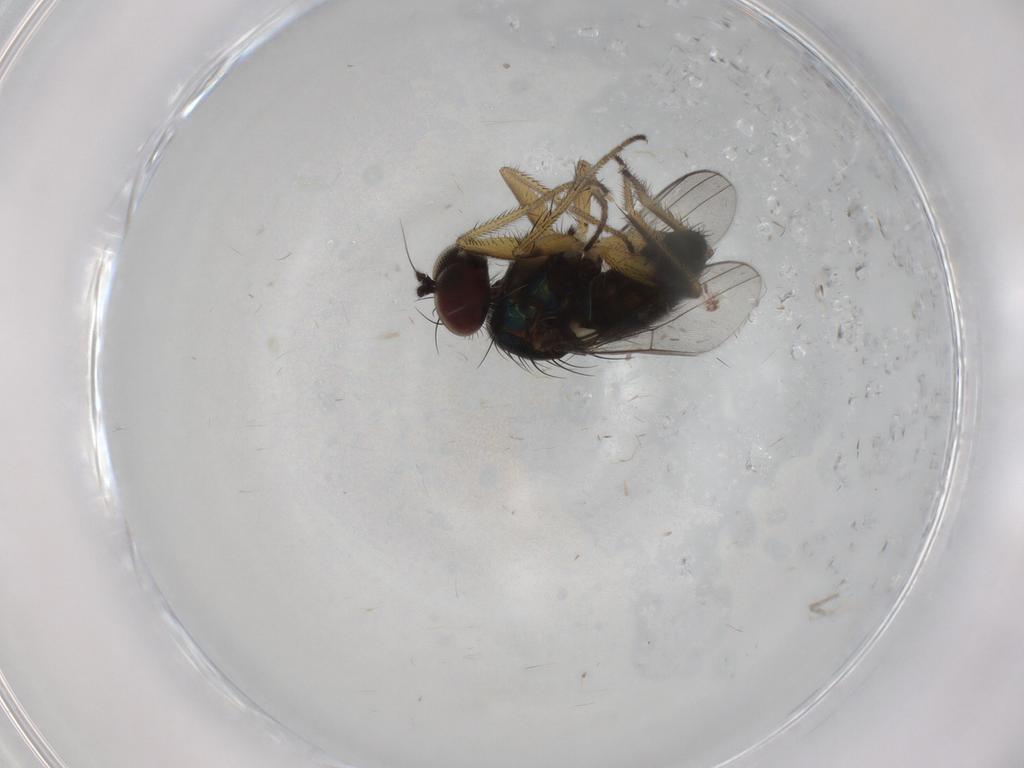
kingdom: Animalia
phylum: Arthropoda
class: Insecta
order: Diptera
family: Dolichopodidae
